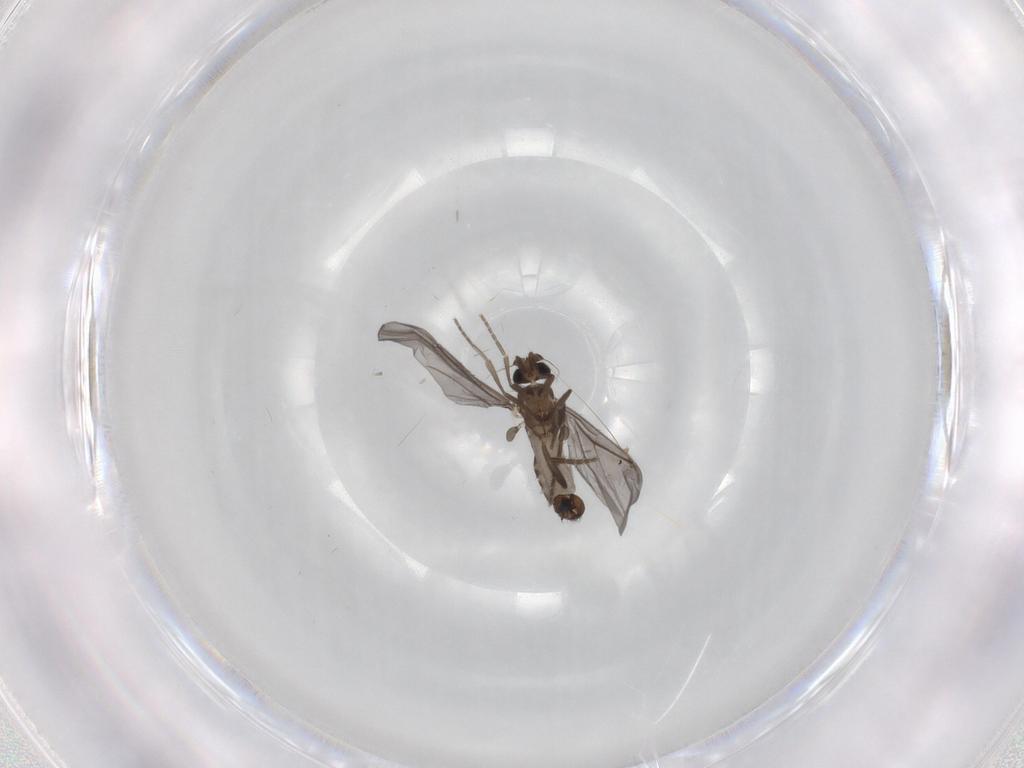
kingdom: Animalia
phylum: Arthropoda
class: Insecta
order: Diptera
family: Phoridae
